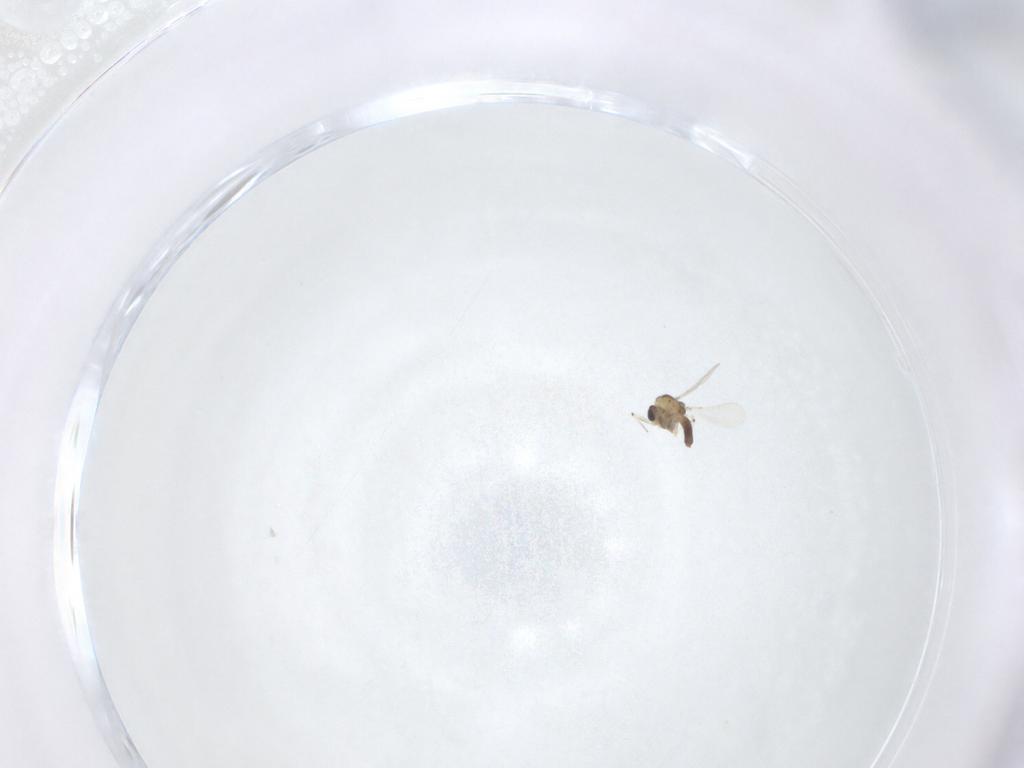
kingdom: Animalia
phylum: Arthropoda
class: Insecta
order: Diptera
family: Chironomidae
